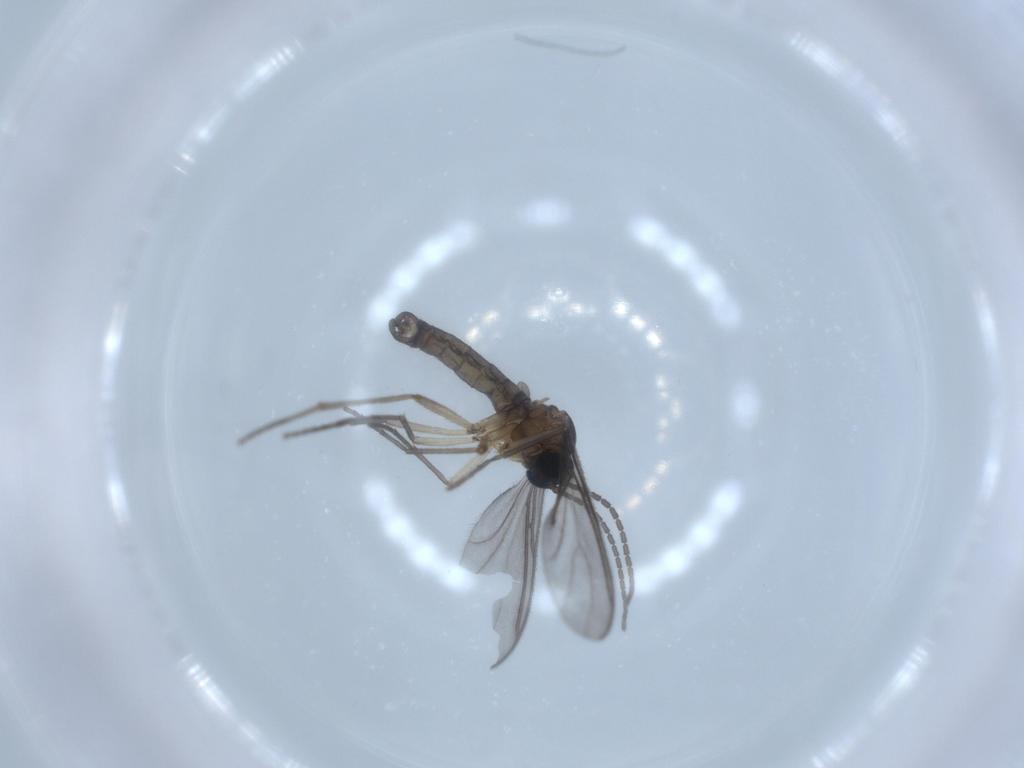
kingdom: Animalia
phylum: Arthropoda
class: Insecta
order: Diptera
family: Sciaridae
